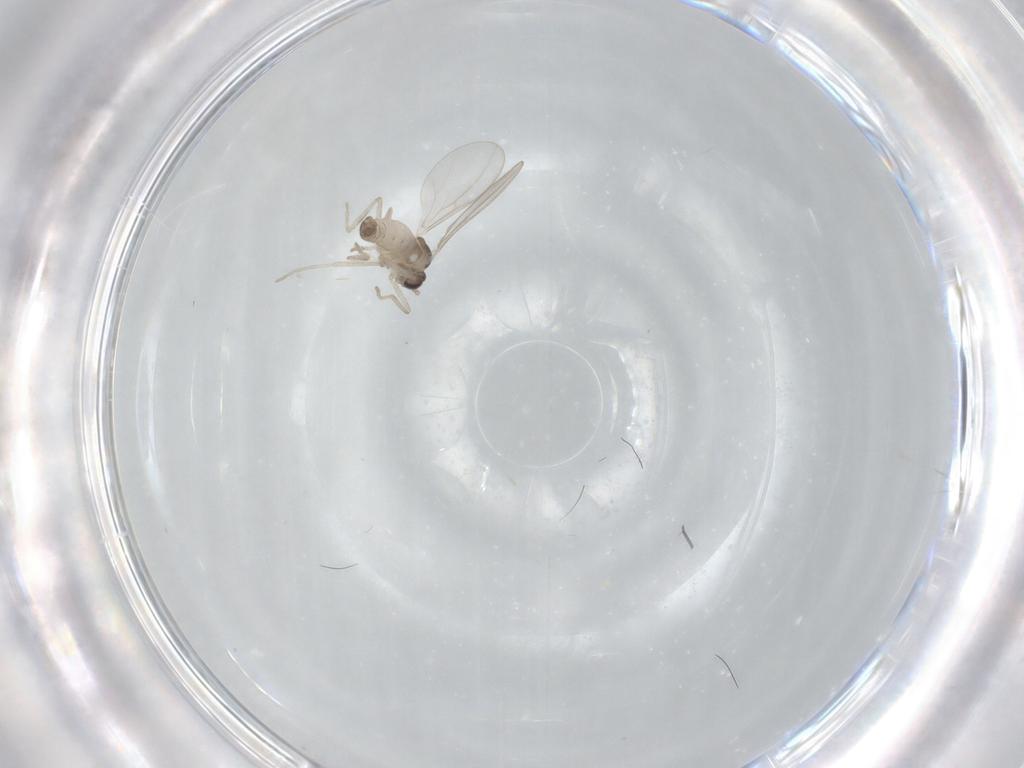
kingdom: Animalia
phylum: Arthropoda
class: Insecta
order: Diptera
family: Cecidomyiidae
